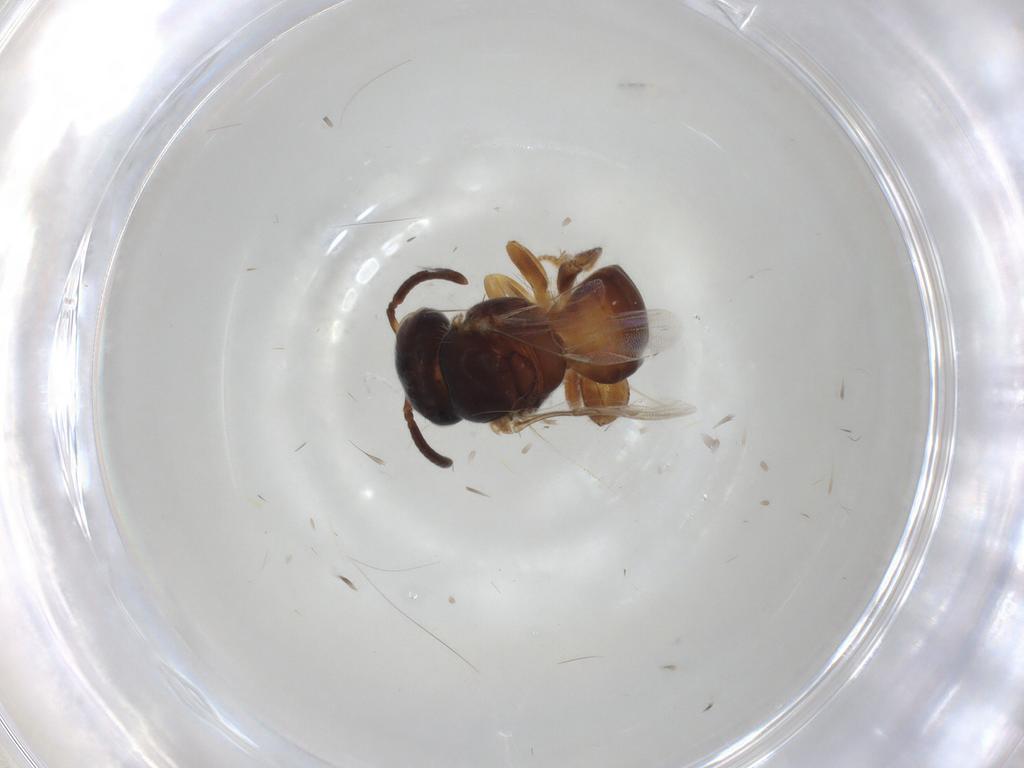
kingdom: Animalia
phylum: Arthropoda
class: Insecta
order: Hymenoptera
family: Apidae
